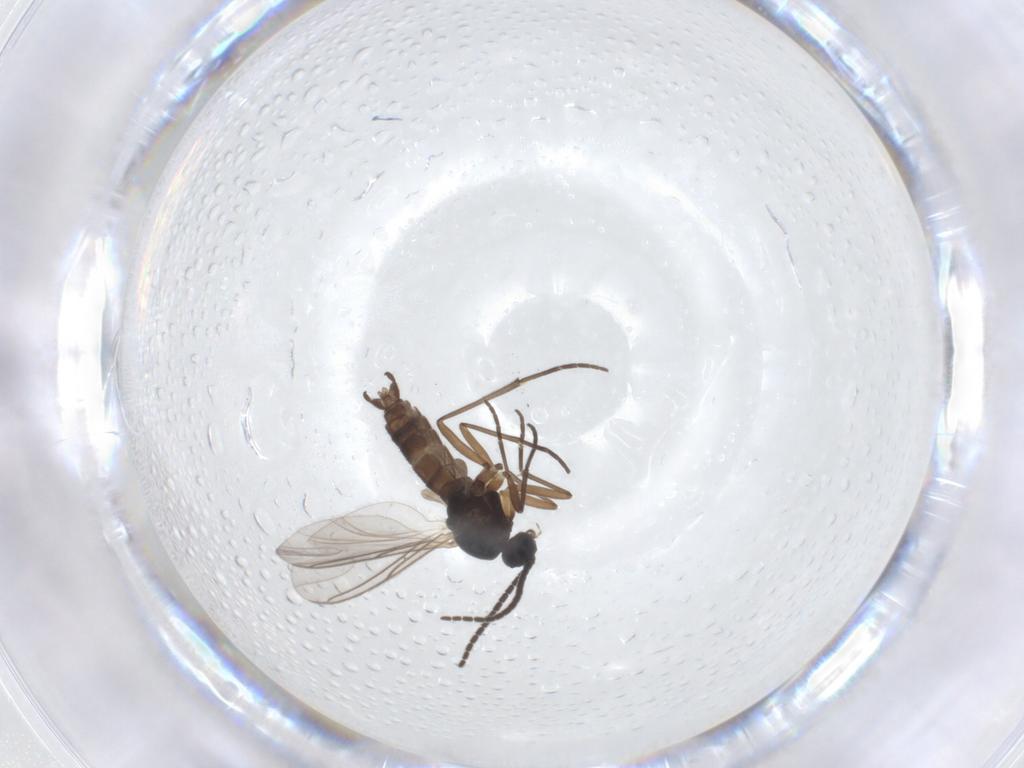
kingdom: Animalia
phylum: Arthropoda
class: Insecta
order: Diptera
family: Sciaridae
